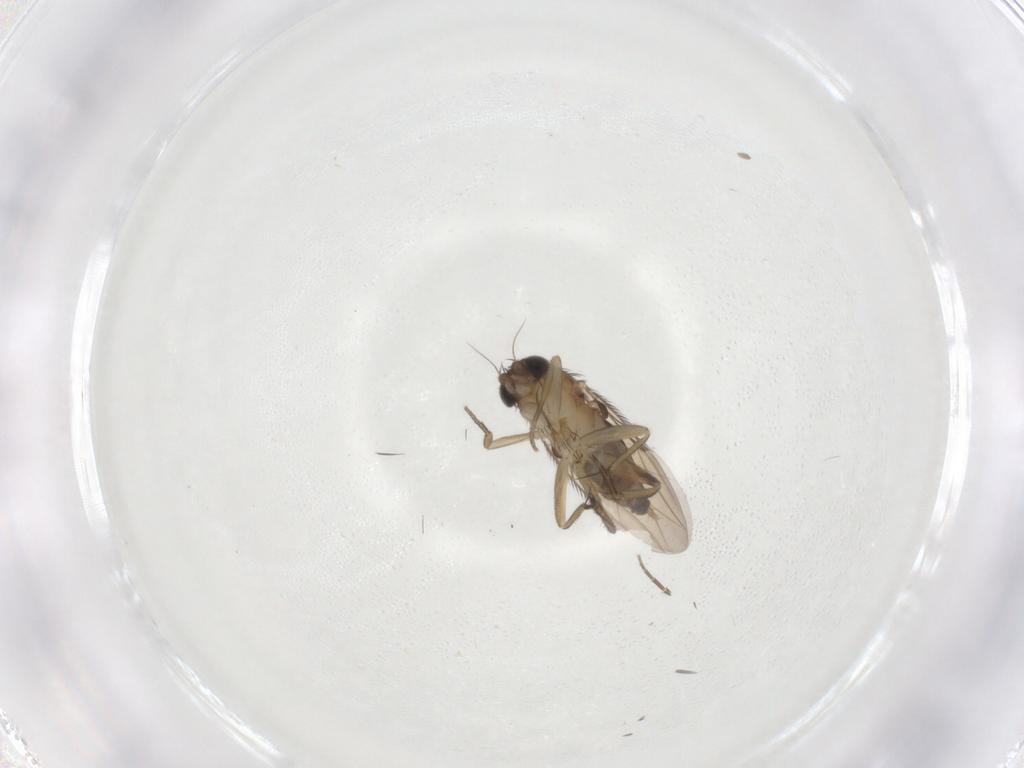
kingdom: Animalia
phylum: Arthropoda
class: Insecta
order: Diptera
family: Phoridae
